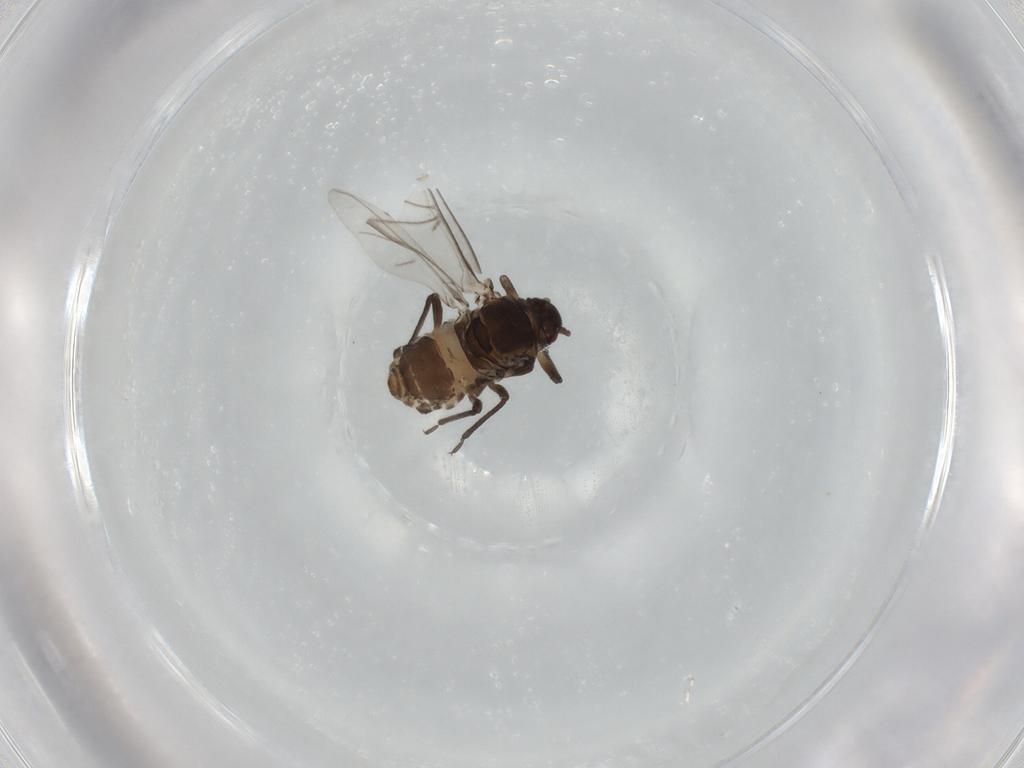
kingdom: Animalia
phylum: Arthropoda
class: Insecta
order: Hemiptera
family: Aphididae
